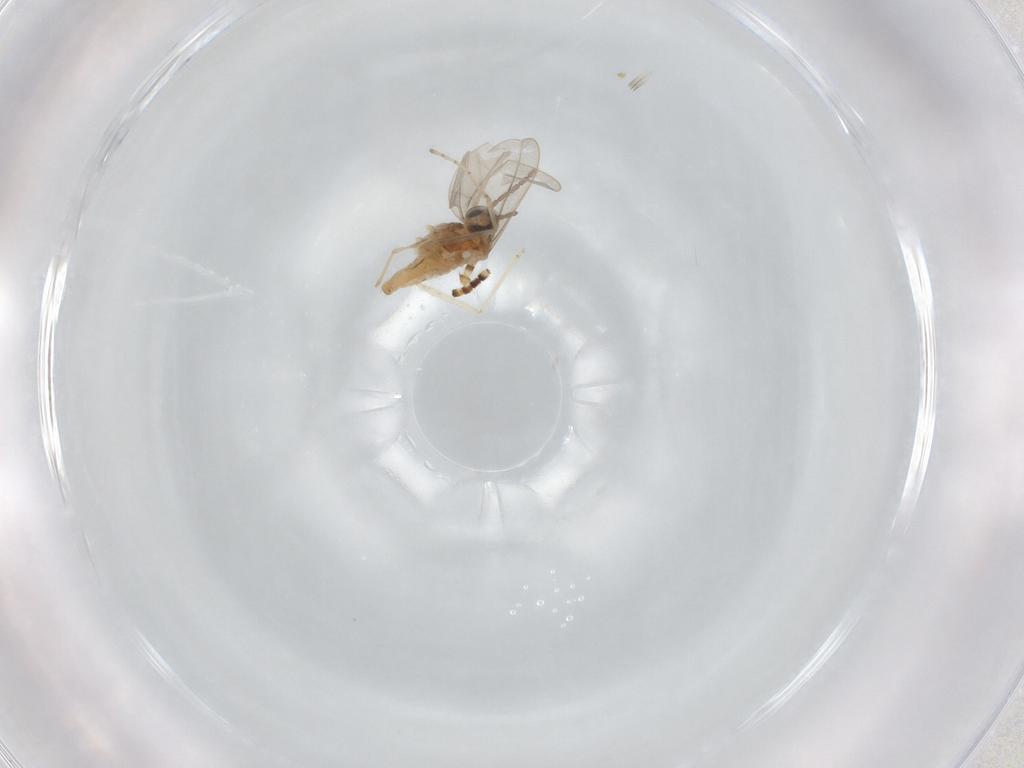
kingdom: Animalia
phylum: Arthropoda
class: Insecta
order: Diptera
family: Cecidomyiidae
